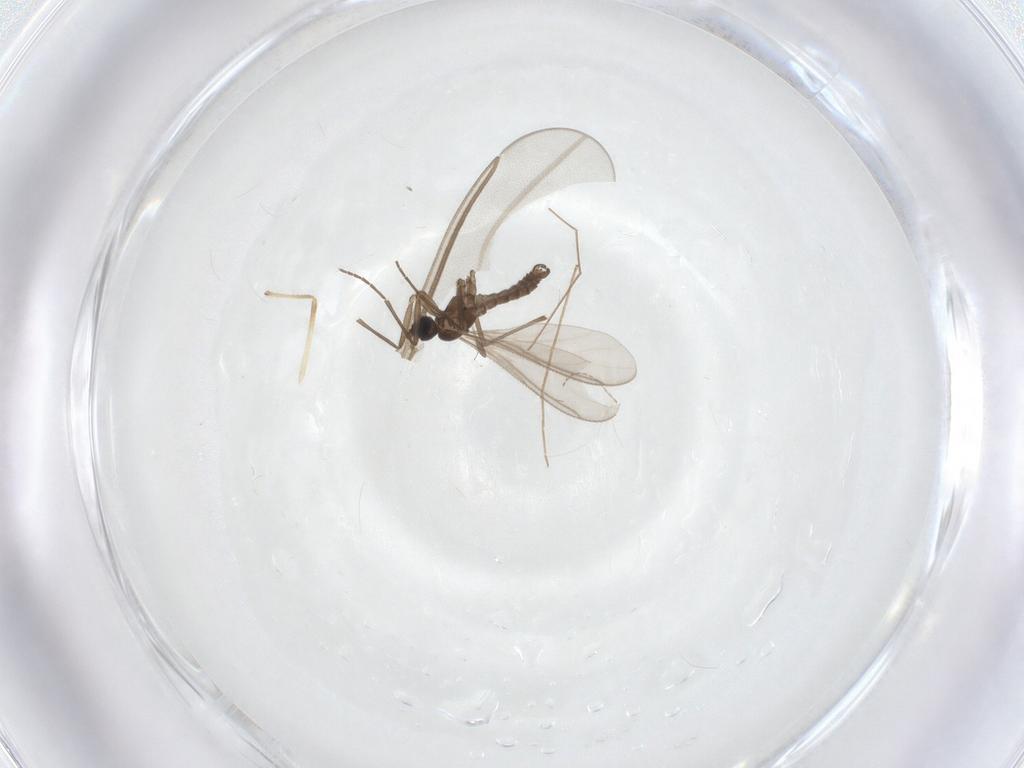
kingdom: Animalia
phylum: Arthropoda
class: Insecta
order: Diptera
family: Sciaridae
